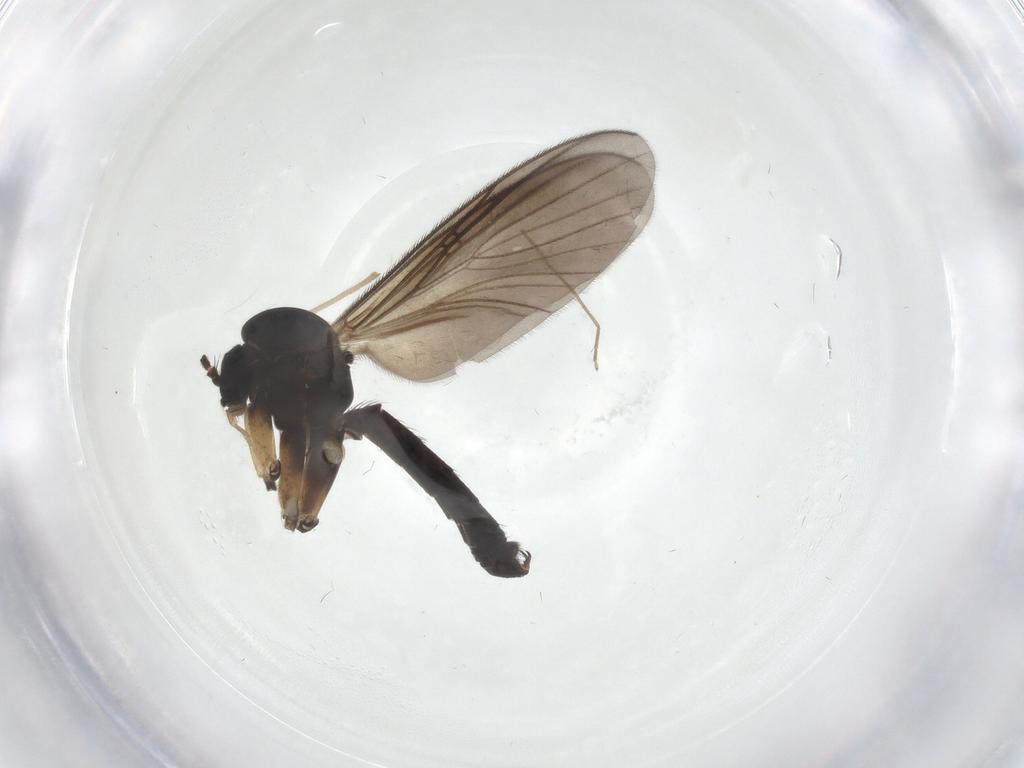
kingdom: Animalia
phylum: Arthropoda
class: Insecta
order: Diptera
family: Chironomidae
